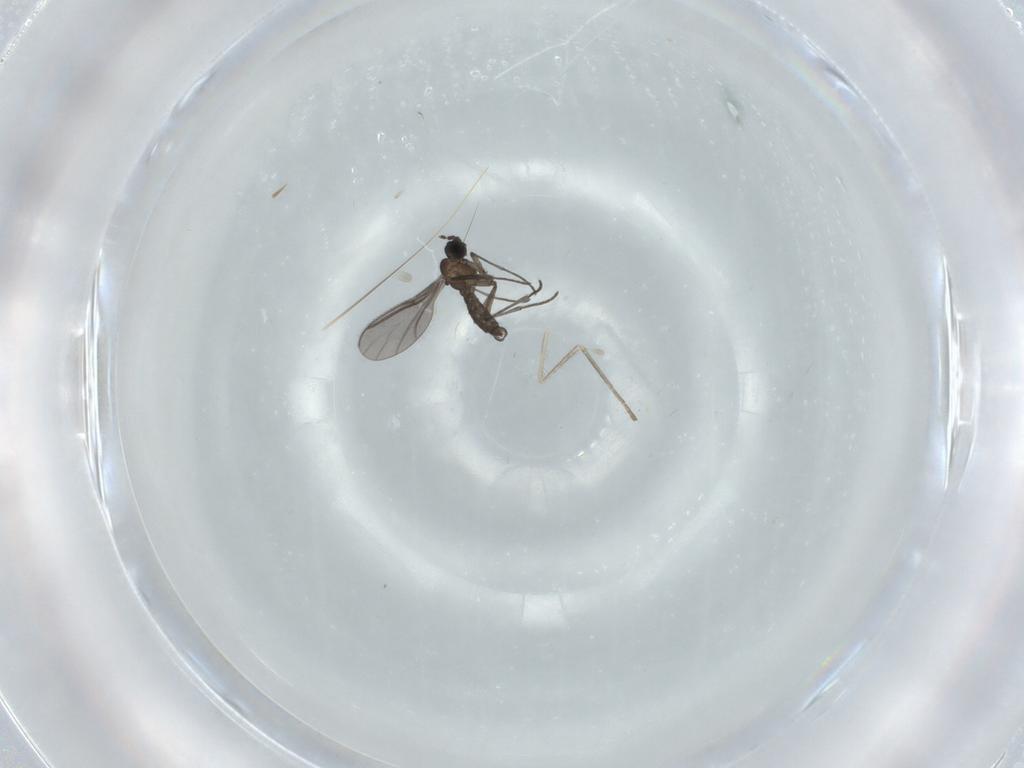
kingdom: Animalia
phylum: Arthropoda
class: Insecta
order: Diptera
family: Cecidomyiidae
